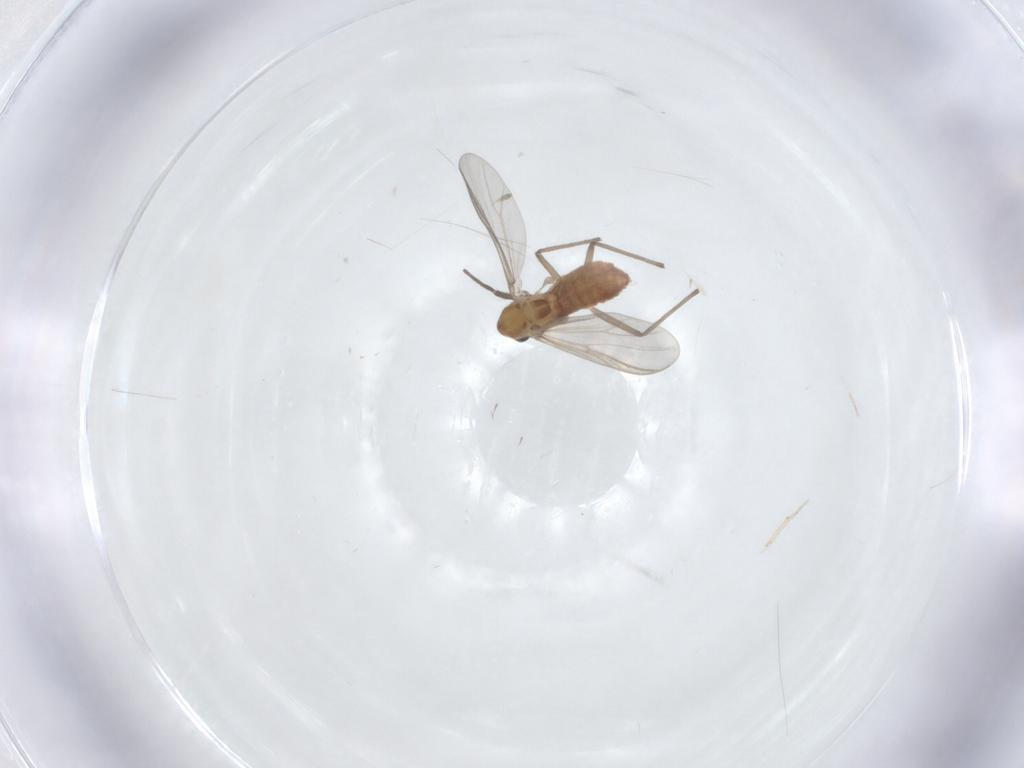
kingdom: Animalia
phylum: Arthropoda
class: Insecta
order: Diptera
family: Chironomidae
